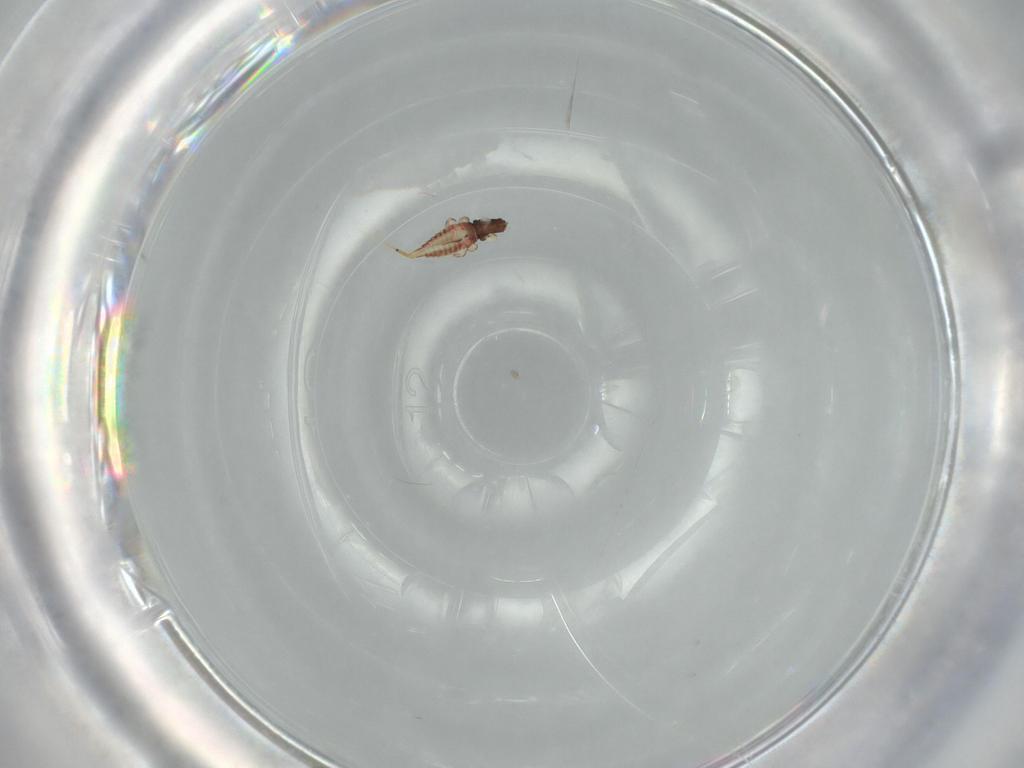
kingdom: Animalia
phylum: Arthropoda
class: Insecta
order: Thysanoptera
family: Phlaeothripidae
